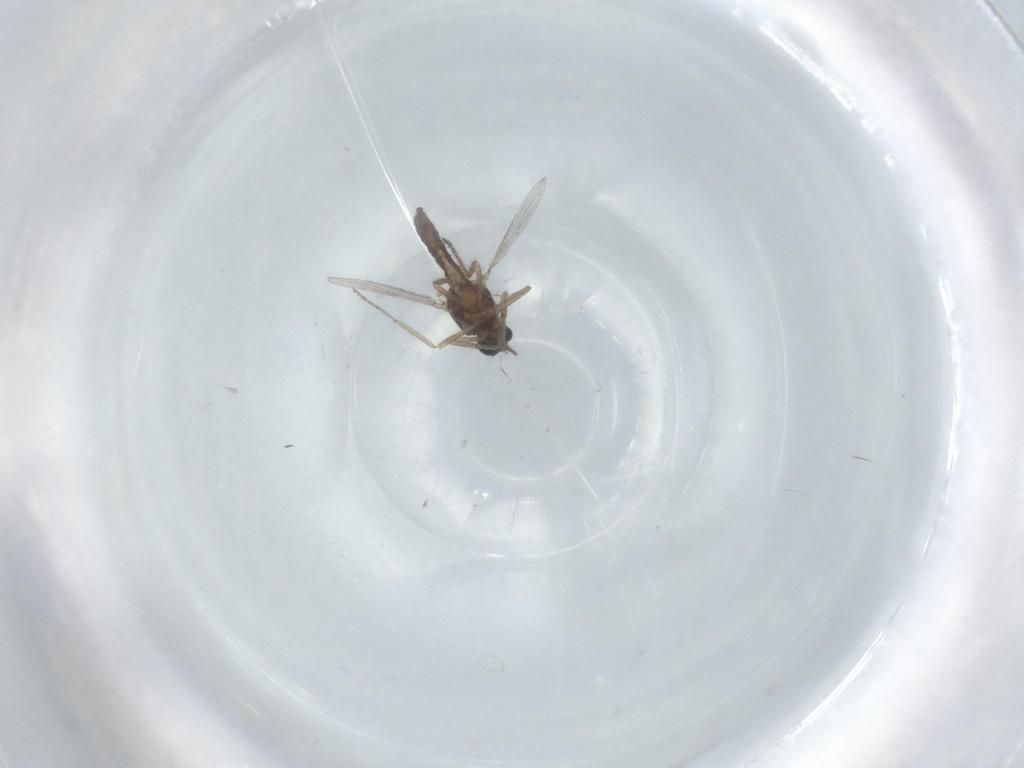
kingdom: Animalia
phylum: Arthropoda
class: Insecta
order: Diptera
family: Ceratopogonidae
